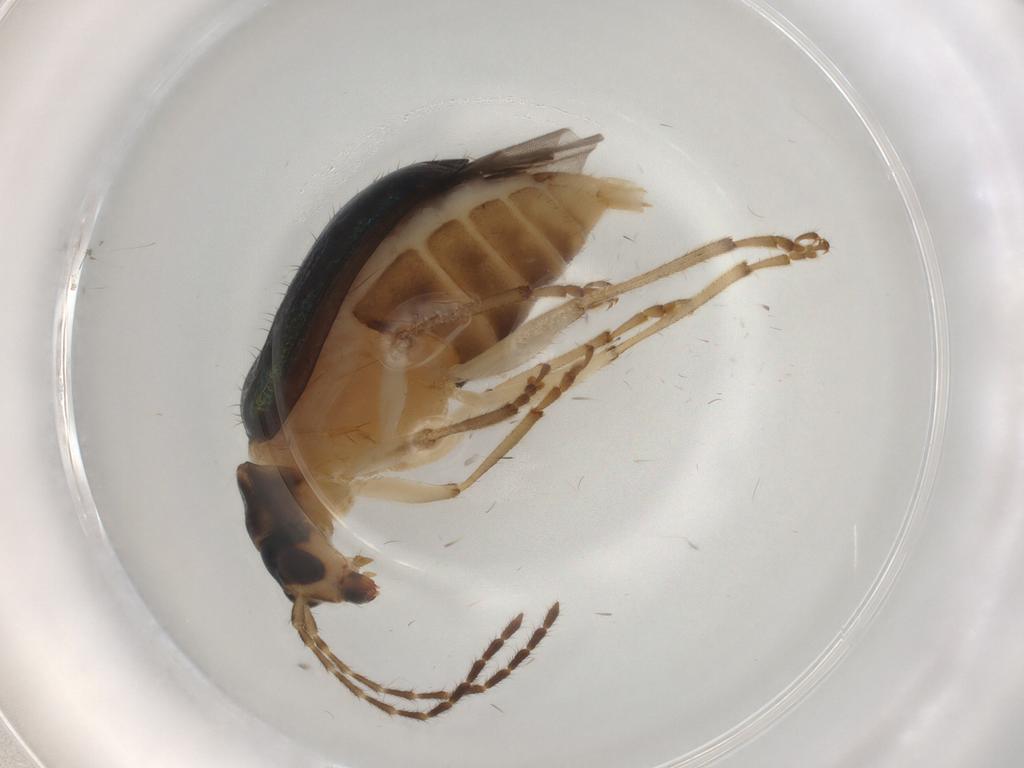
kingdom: Animalia
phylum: Arthropoda
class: Insecta
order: Coleoptera
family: Chrysomelidae
